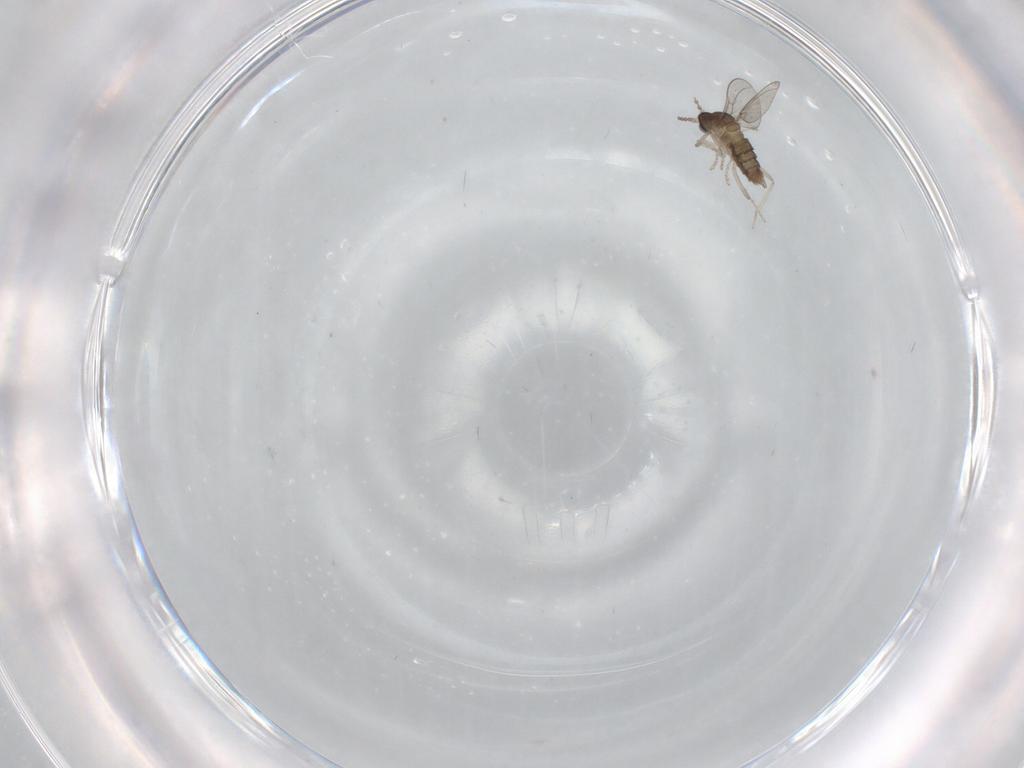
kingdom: Animalia
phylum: Arthropoda
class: Insecta
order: Diptera
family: Cecidomyiidae
